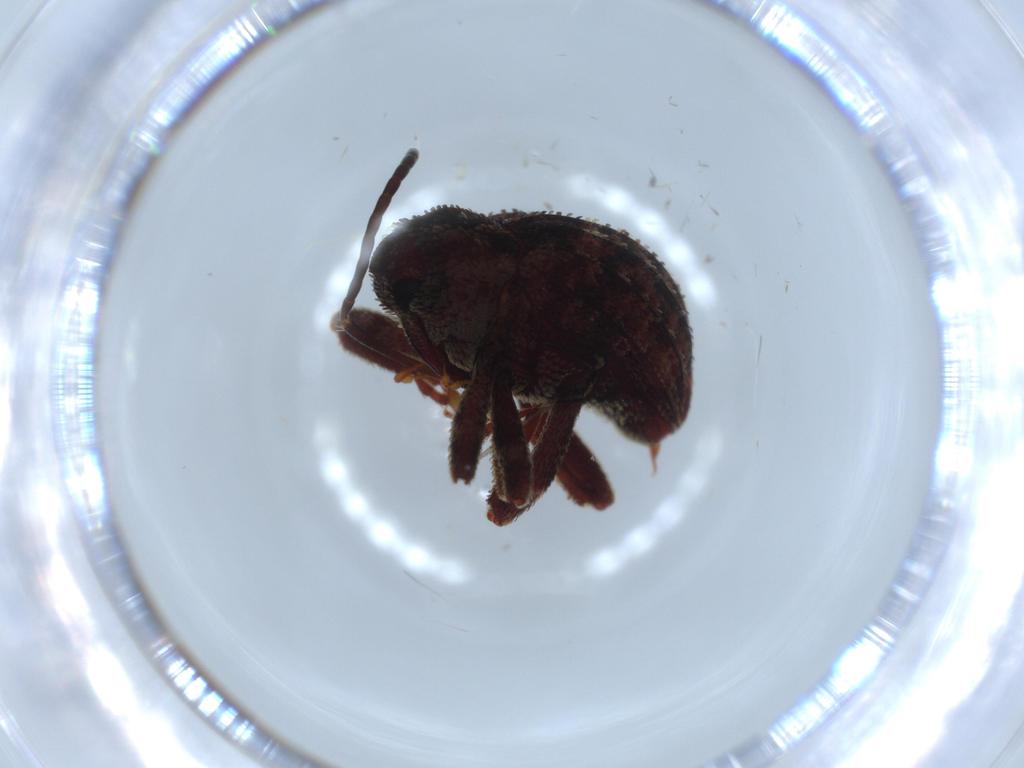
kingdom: Animalia
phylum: Arthropoda
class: Insecta
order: Coleoptera
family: Curculionidae
